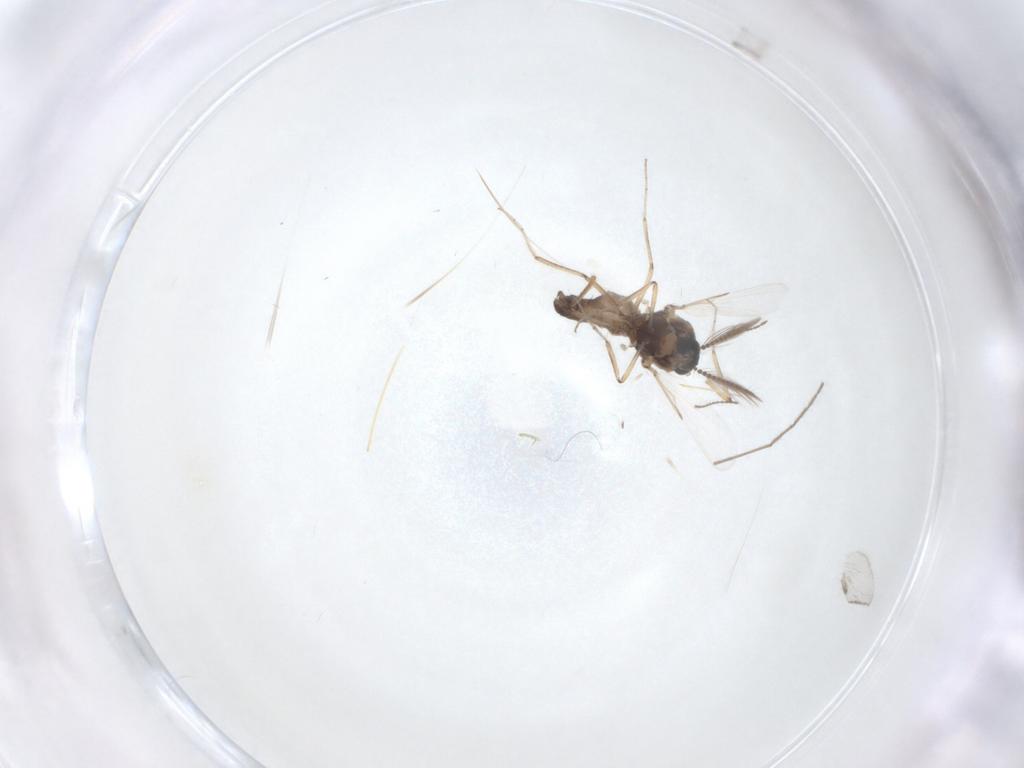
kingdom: Animalia
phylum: Arthropoda
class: Insecta
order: Diptera
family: Ceratopogonidae
